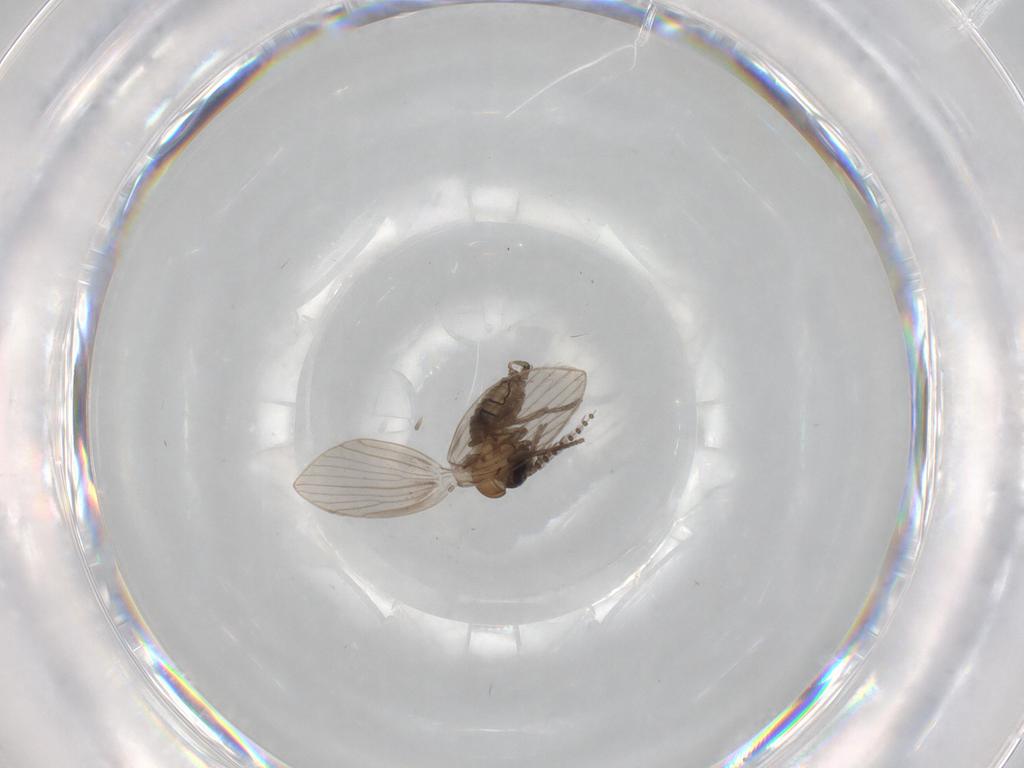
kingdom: Animalia
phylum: Arthropoda
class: Insecta
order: Diptera
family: Psychodidae
